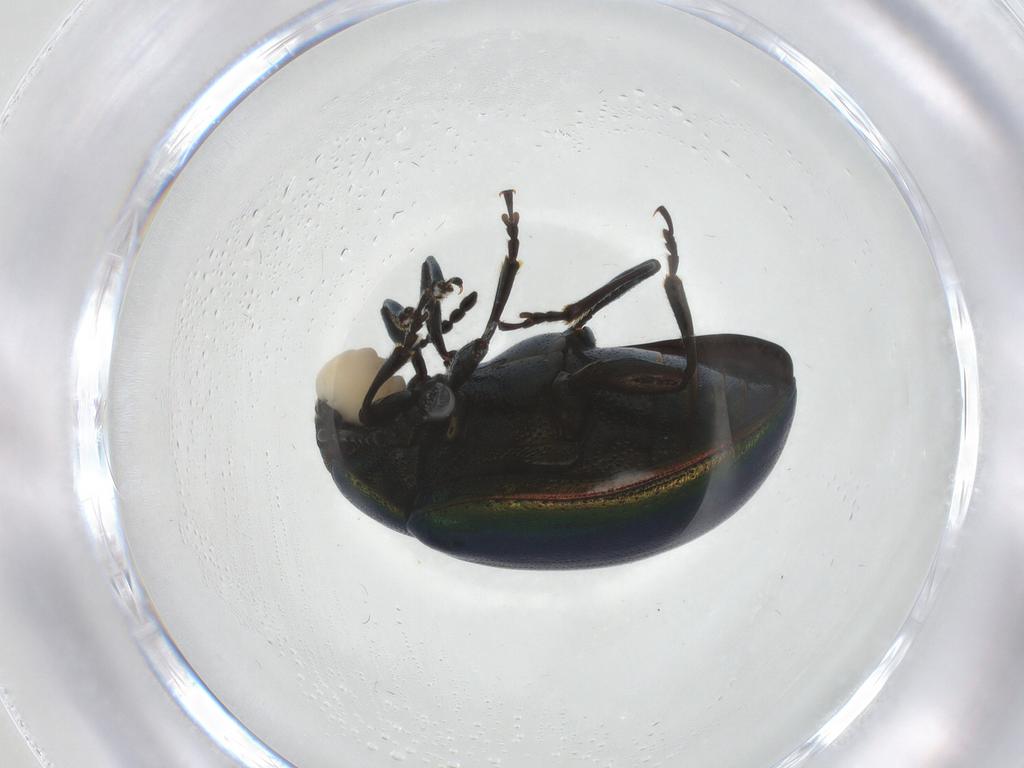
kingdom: Animalia
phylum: Arthropoda
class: Insecta
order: Coleoptera
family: Chrysomelidae
